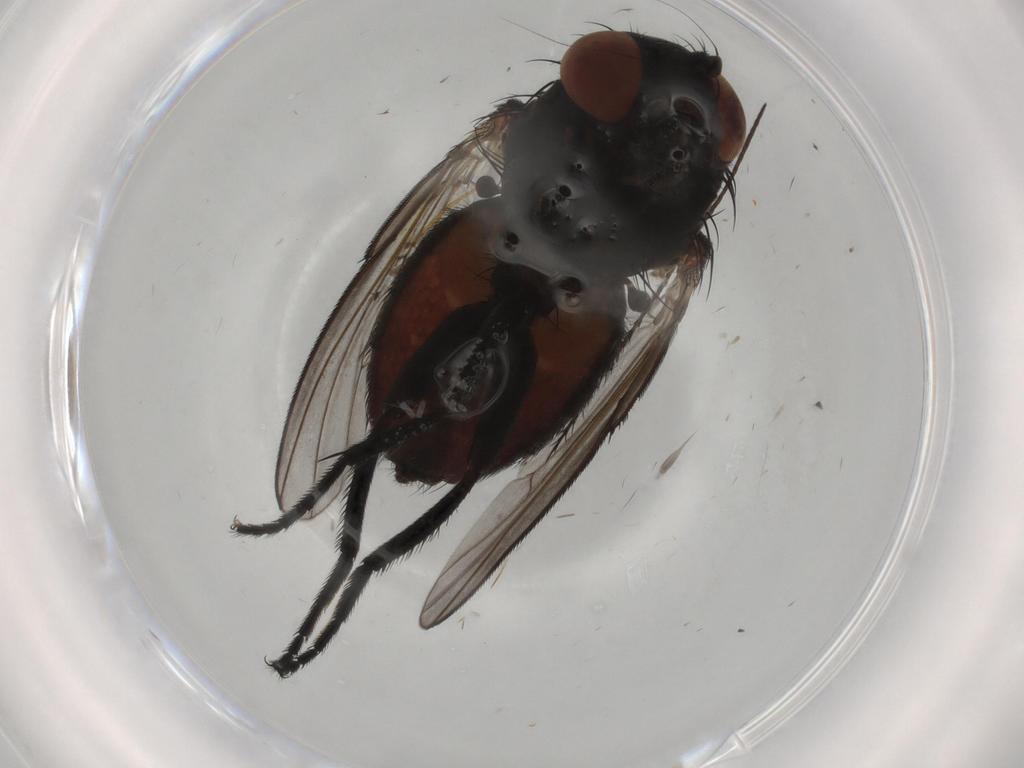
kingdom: Animalia
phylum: Arthropoda
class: Insecta
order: Diptera
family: Milichiidae
